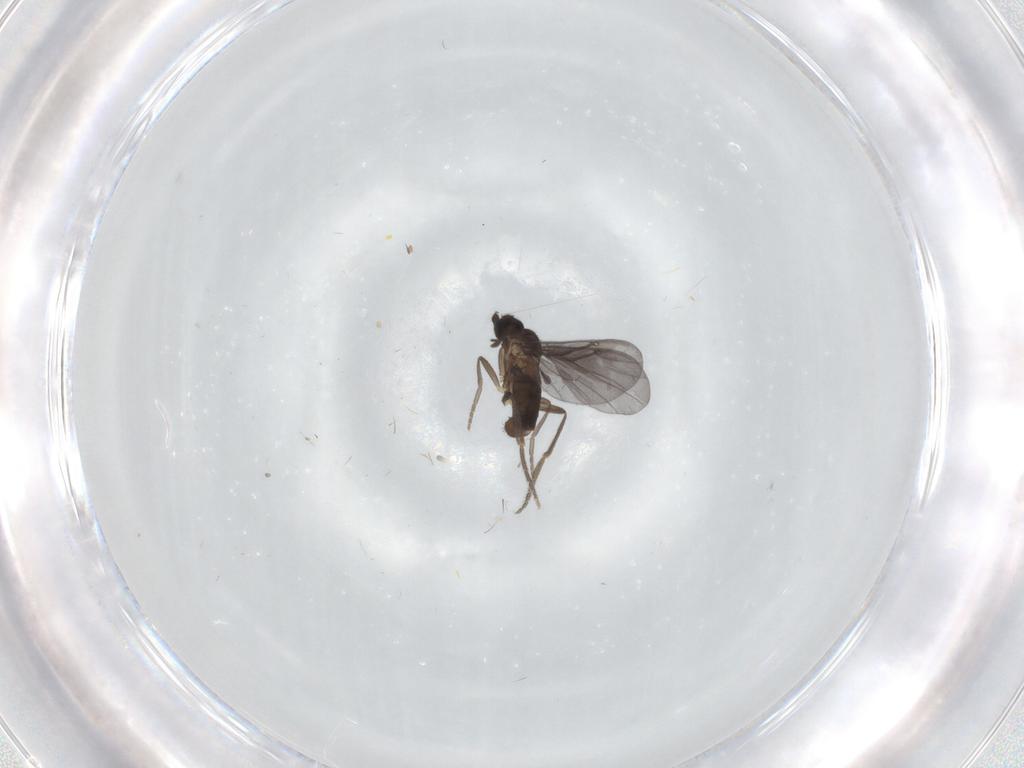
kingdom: Animalia
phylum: Arthropoda
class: Insecta
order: Diptera
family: Phoridae
